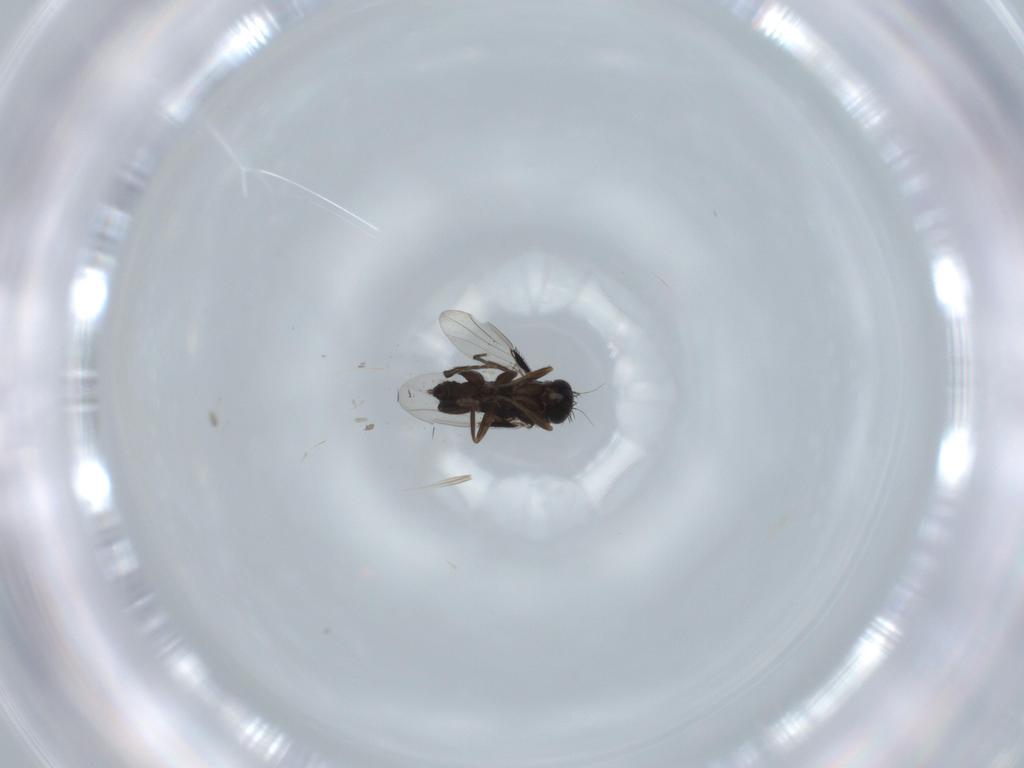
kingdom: Animalia
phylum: Arthropoda
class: Insecta
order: Diptera
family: Phoridae
